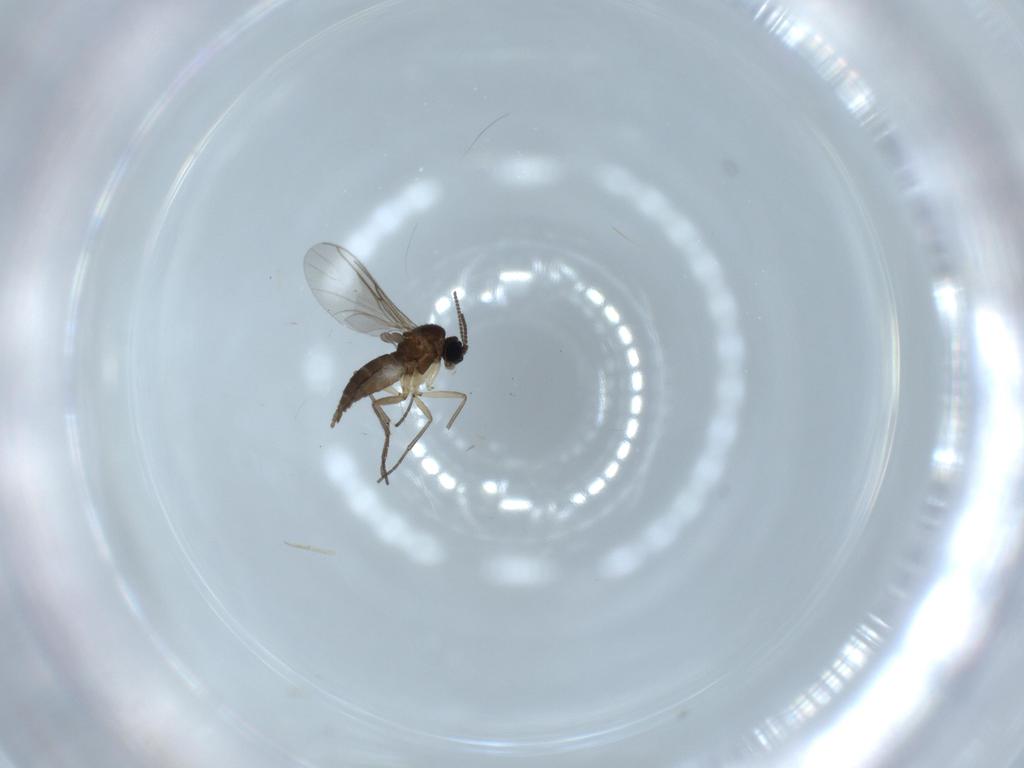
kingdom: Animalia
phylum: Arthropoda
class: Insecta
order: Diptera
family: Sciaridae
